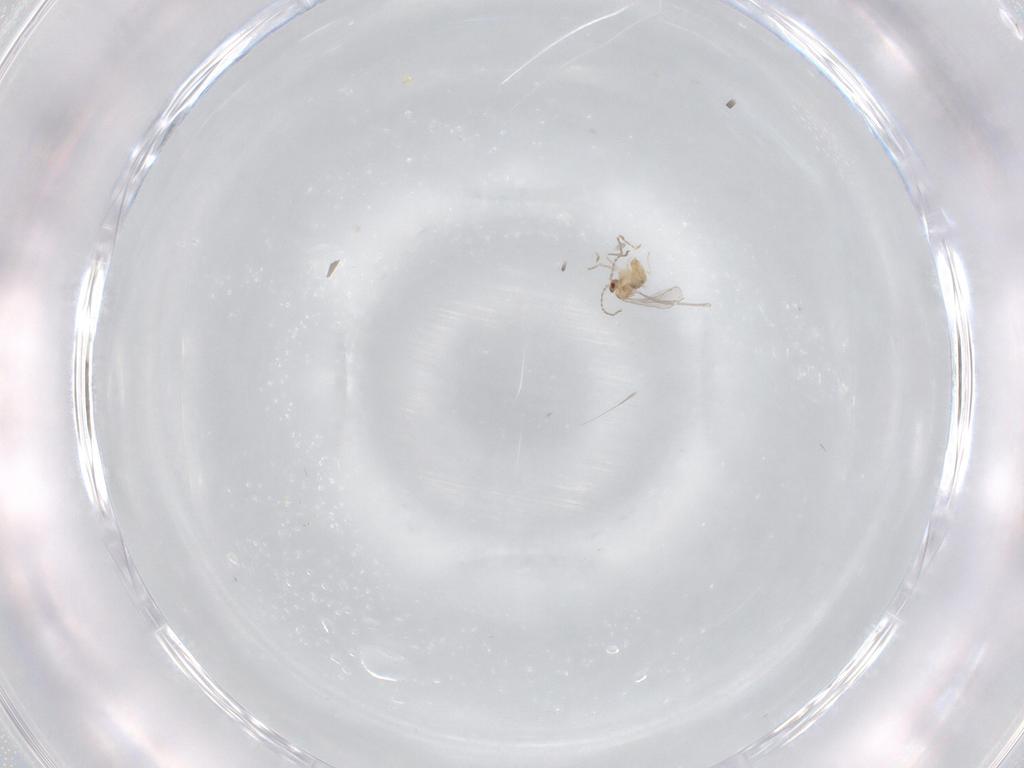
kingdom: Animalia
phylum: Arthropoda
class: Insecta
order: Diptera
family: Cecidomyiidae
